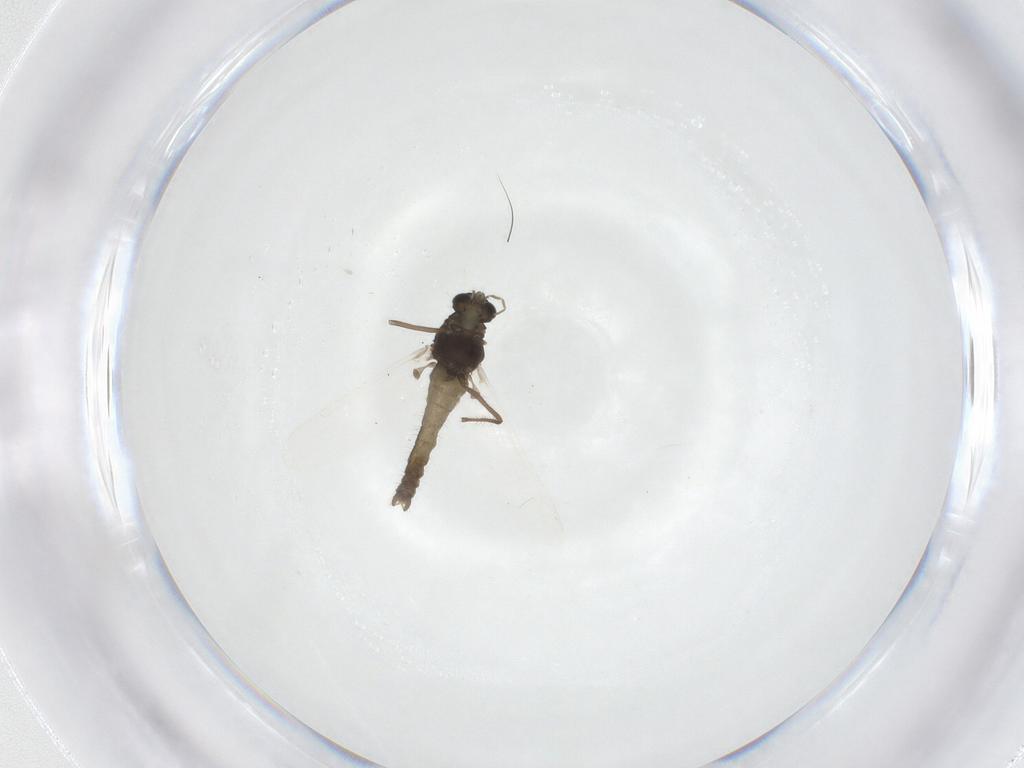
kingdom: Animalia
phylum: Arthropoda
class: Insecta
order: Diptera
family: Chironomidae
